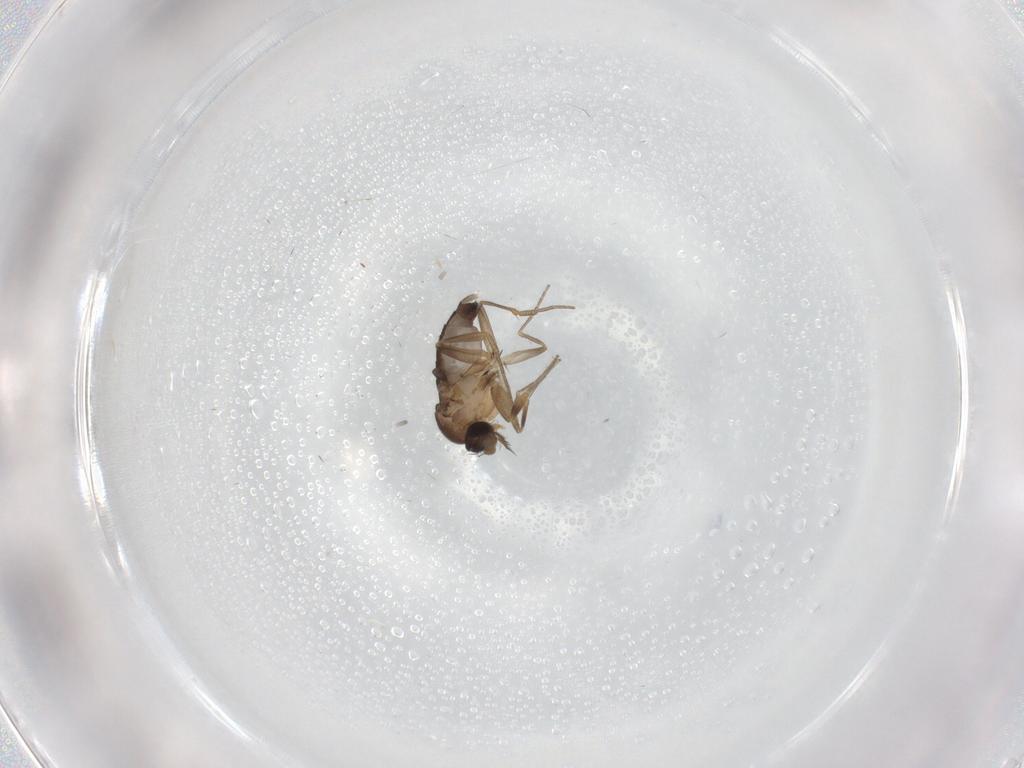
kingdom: Animalia
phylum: Arthropoda
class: Insecta
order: Diptera
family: Phoridae
